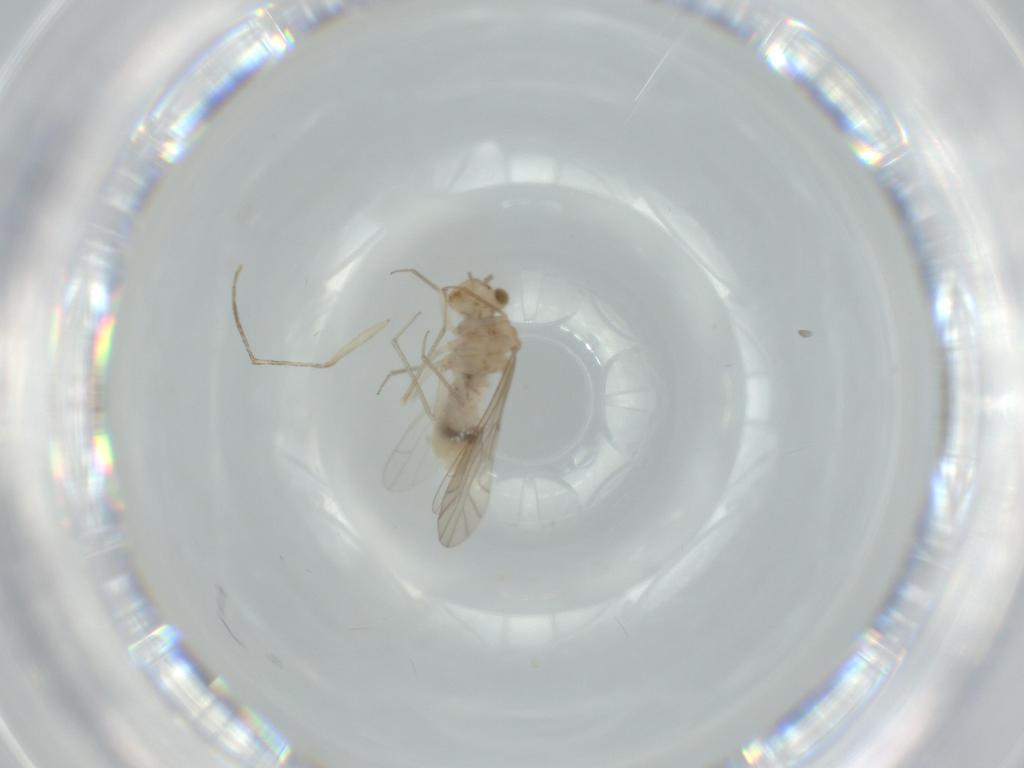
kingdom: Animalia
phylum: Arthropoda
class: Insecta
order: Psocodea
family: Lachesillidae
